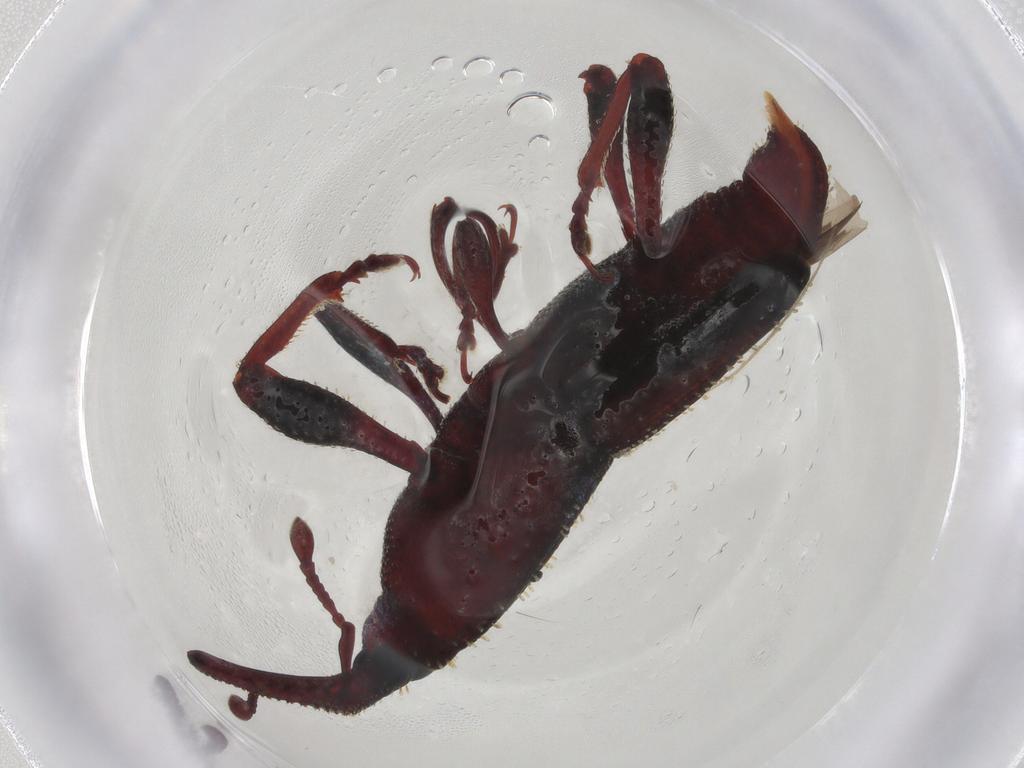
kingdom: Animalia
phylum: Arthropoda
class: Insecta
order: Coleoptera
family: Curculionidae
